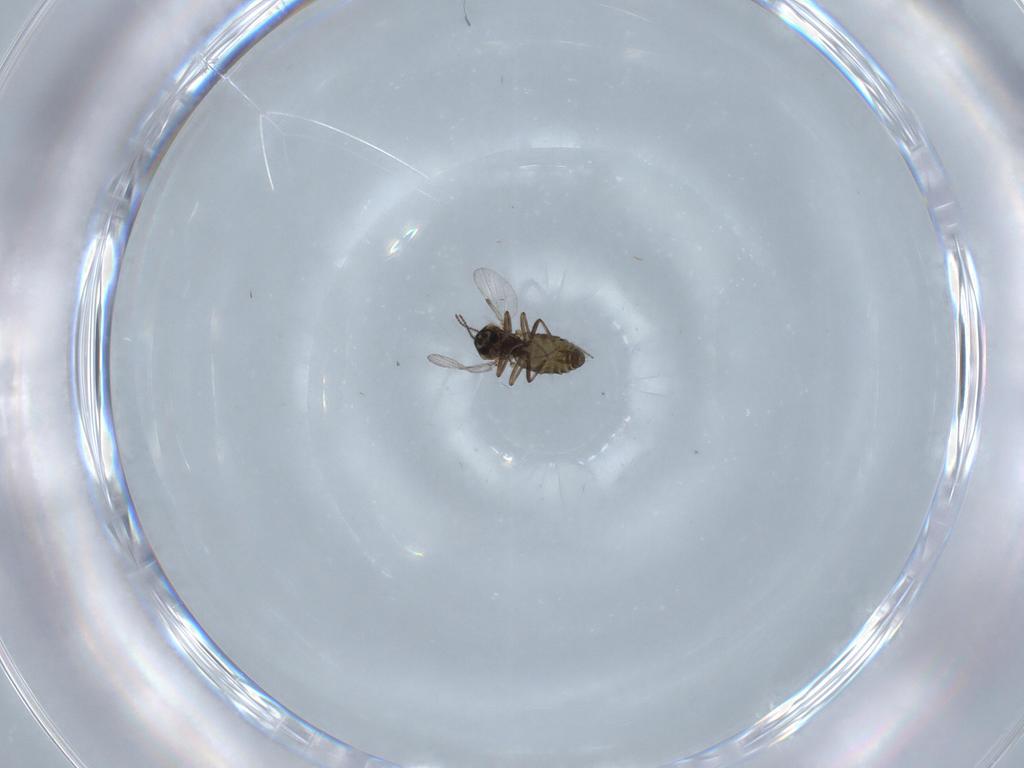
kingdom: Animalia
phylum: Arthropoda
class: Insecta
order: Diptera
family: Ceratopogonidae
